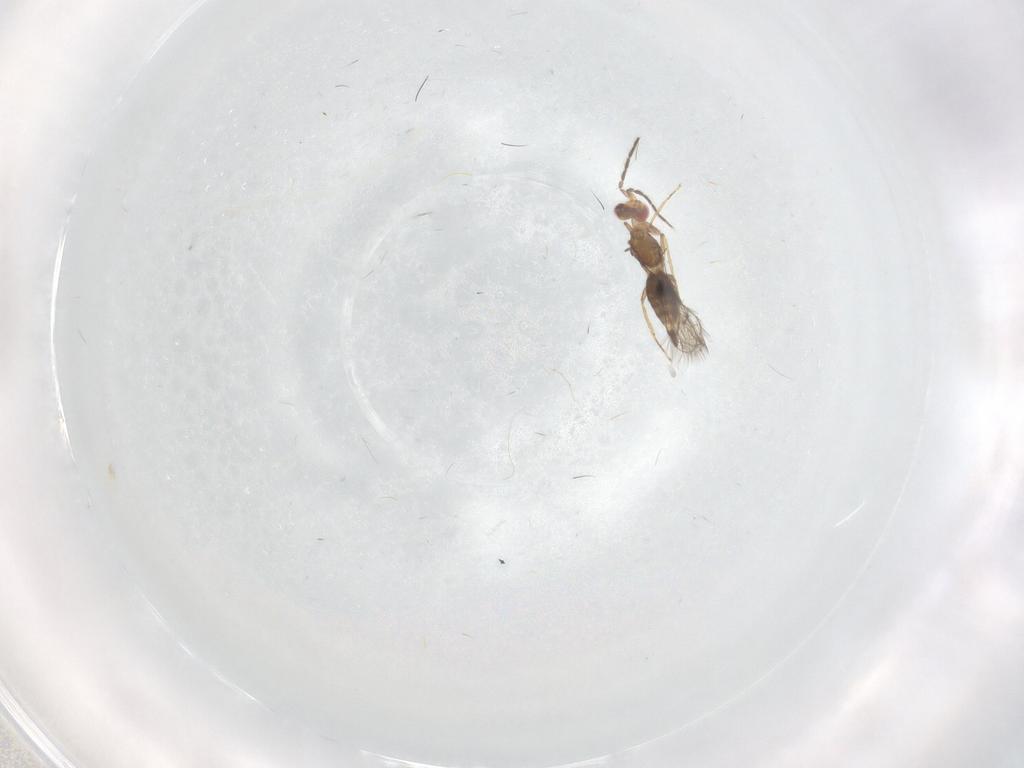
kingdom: Animalia
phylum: Arthropoda
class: Insecta
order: Hymenoptera
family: Eulophidae
